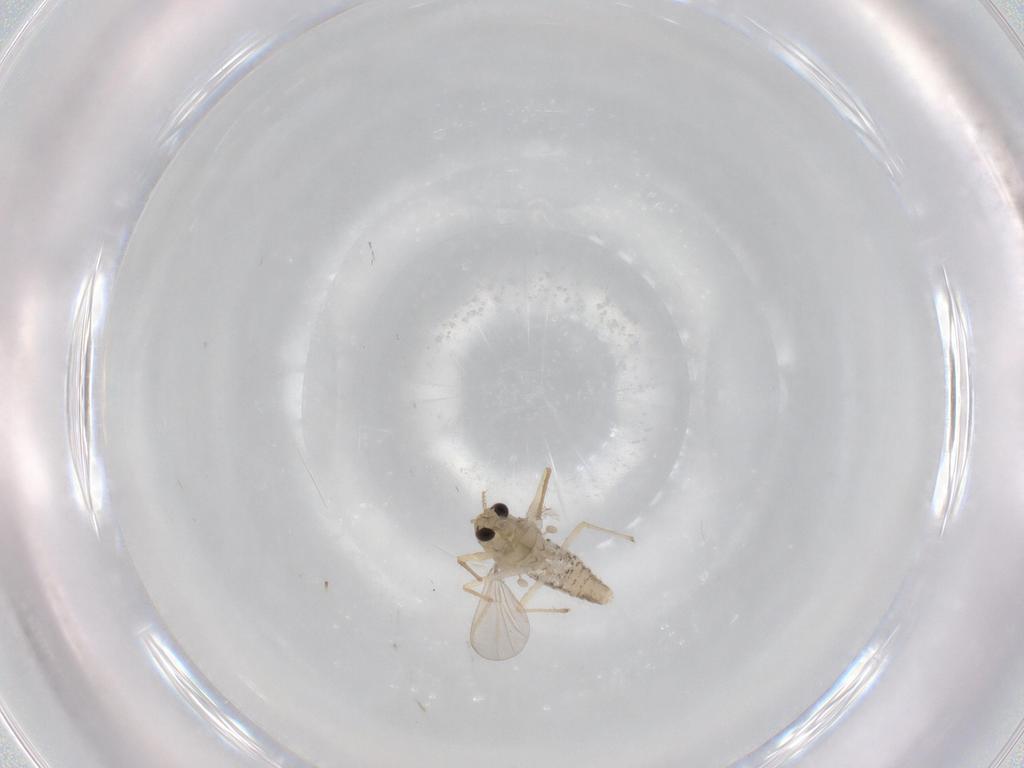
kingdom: Animalia
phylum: Arthropoda
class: Insecta
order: Diptera
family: Chironomidae
